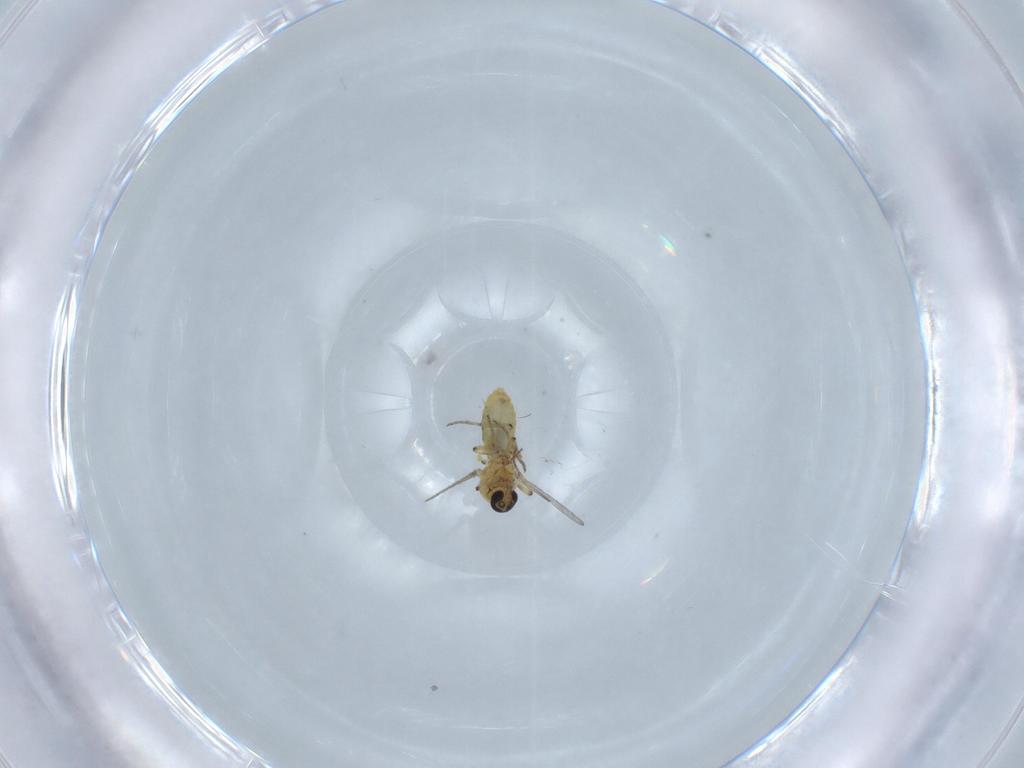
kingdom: Animalia
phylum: Arthropoda
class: Insecta
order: Diptera
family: Ceratopogonidae
